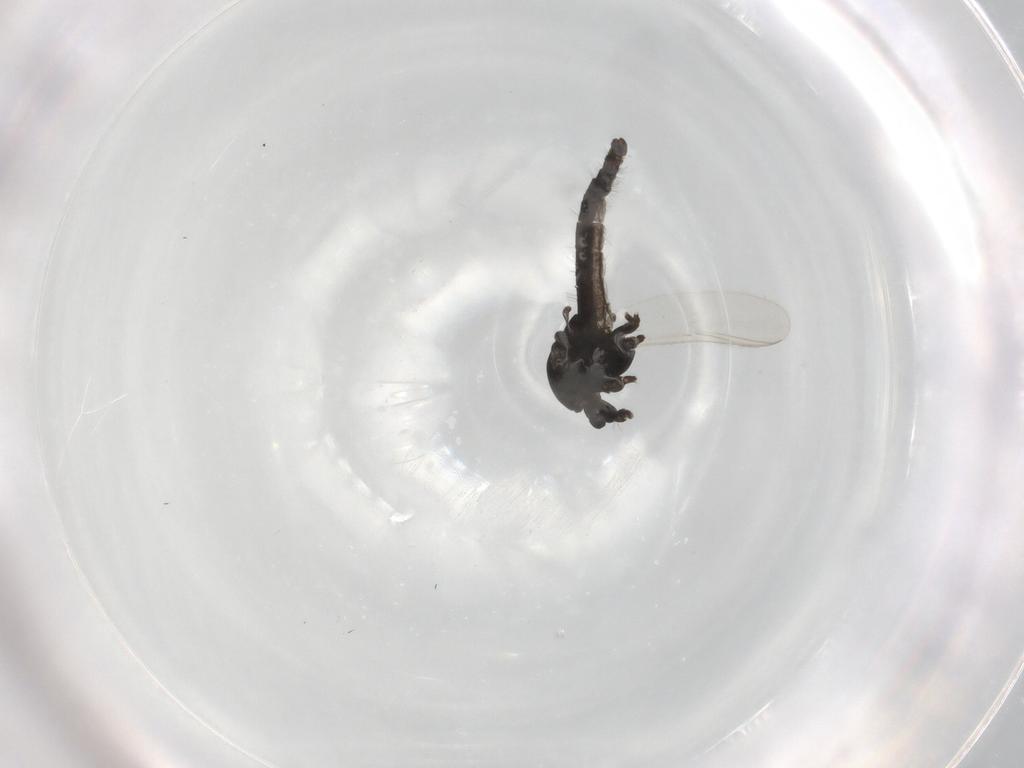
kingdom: Animalia
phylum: Arthropoda
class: Insecta
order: Diptera
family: Chironomidae
